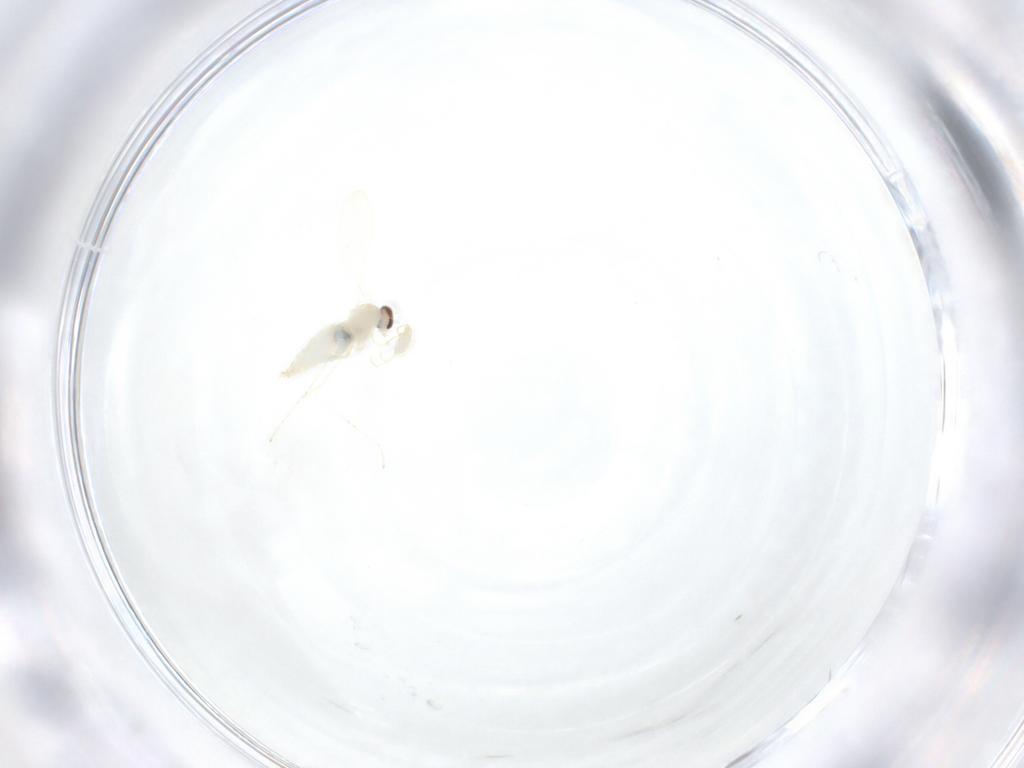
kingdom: Animalia
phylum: Arthropoda
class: Insecta
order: Diptera
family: Cecidomyiidae
